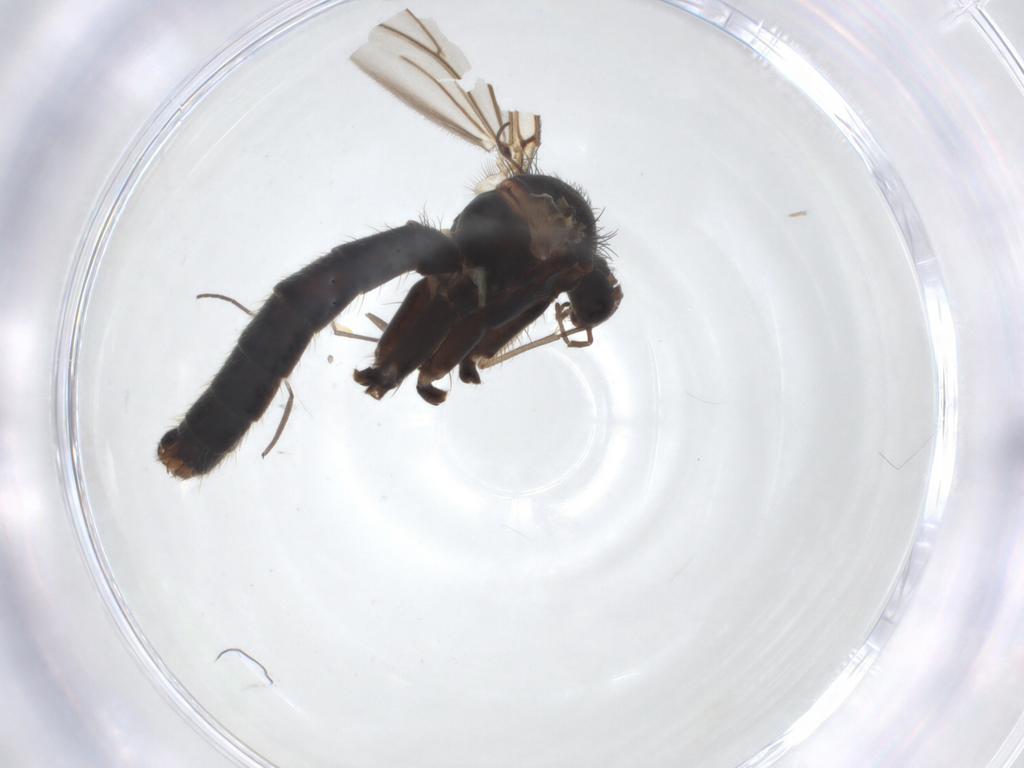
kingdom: Animalia
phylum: Arthropoda
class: Insecta
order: Diptera
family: Mycetophilidae
